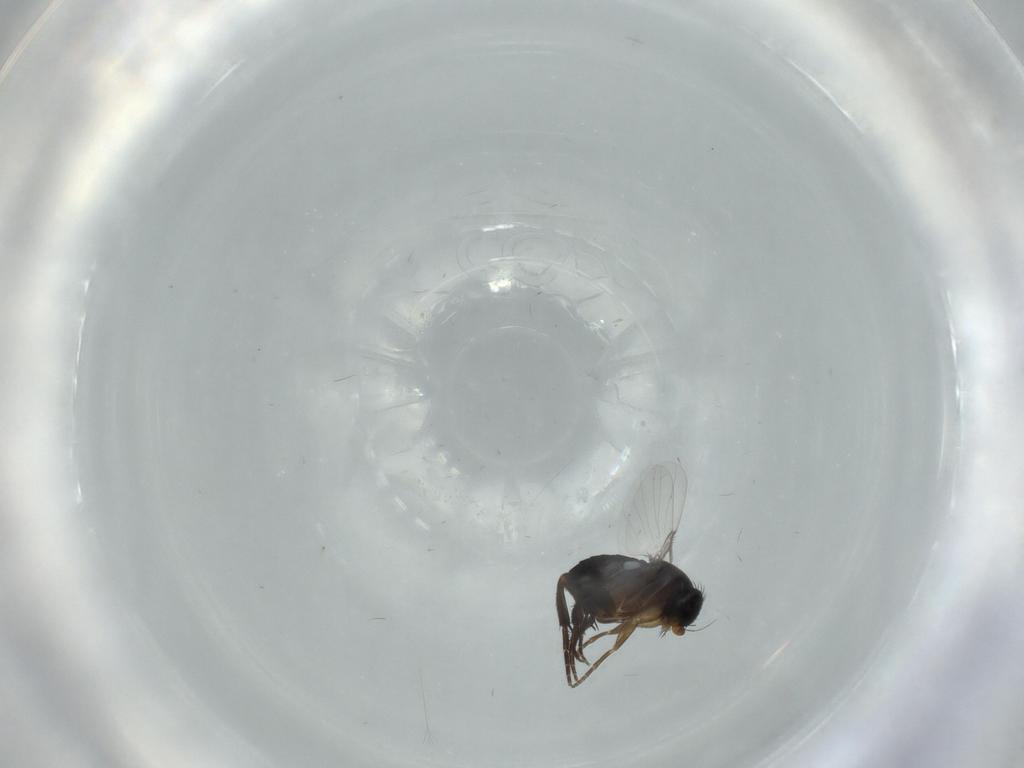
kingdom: Animalia
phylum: Arthropoda
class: Insecta
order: Diptera
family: Phoridae
